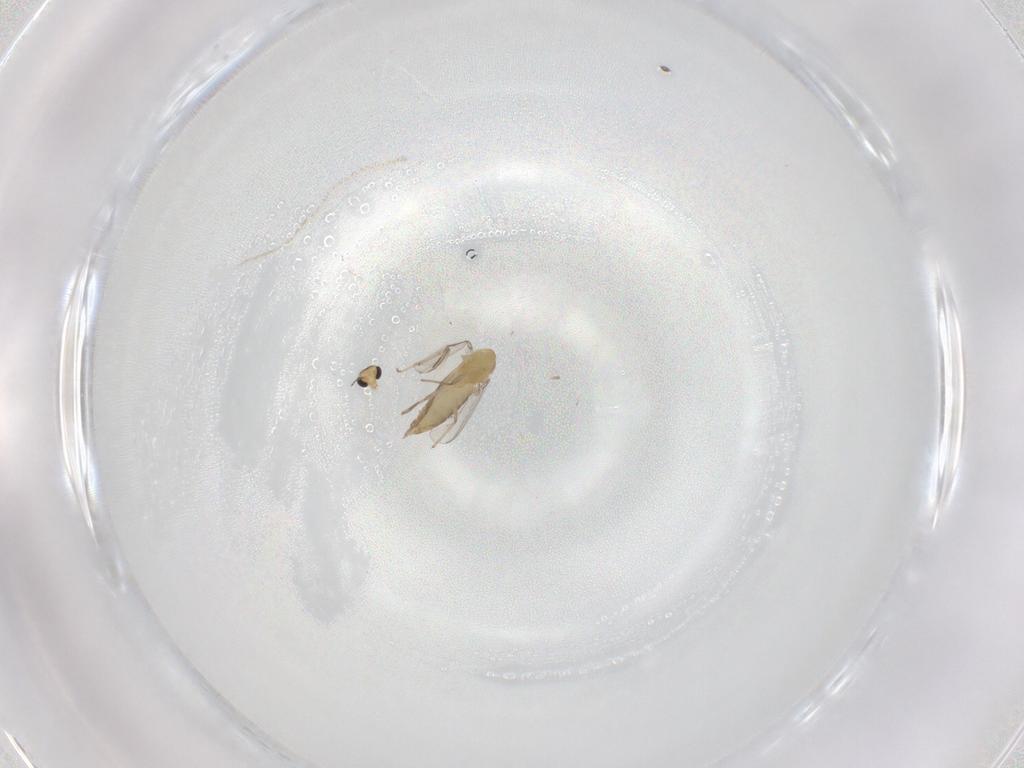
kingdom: Animalia
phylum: Arthropoda
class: Insecta
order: Diptera
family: Chironomidae
